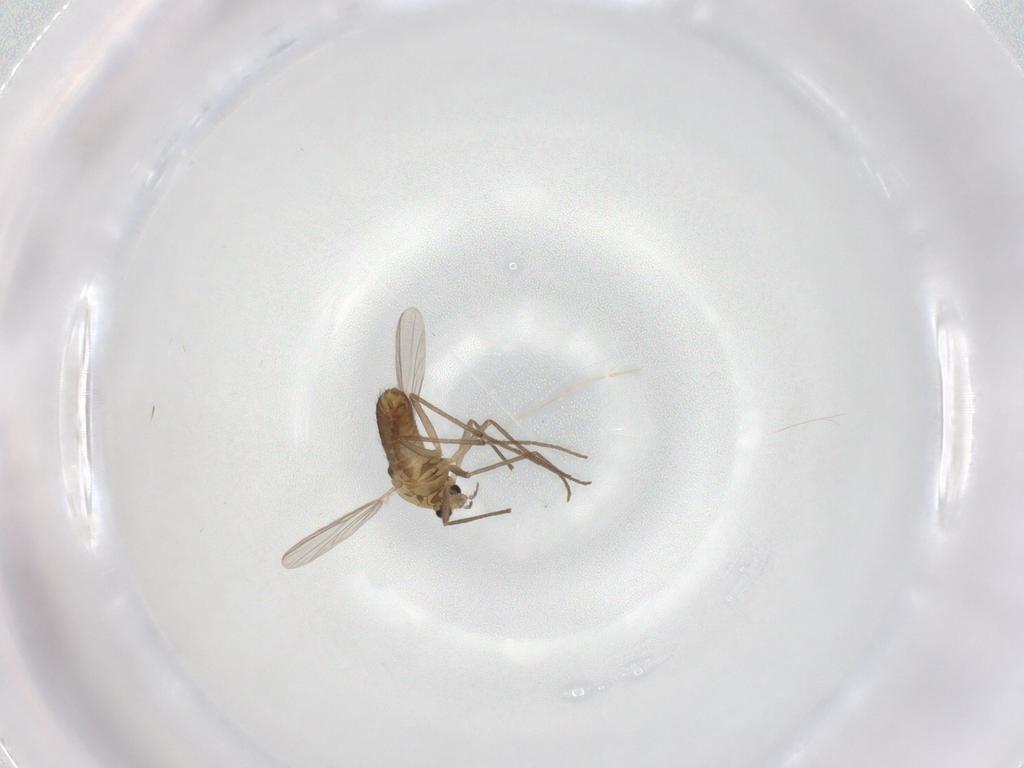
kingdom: Animalia
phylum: Arthropoda
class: Insecta
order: Diptera
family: Chironomidae
